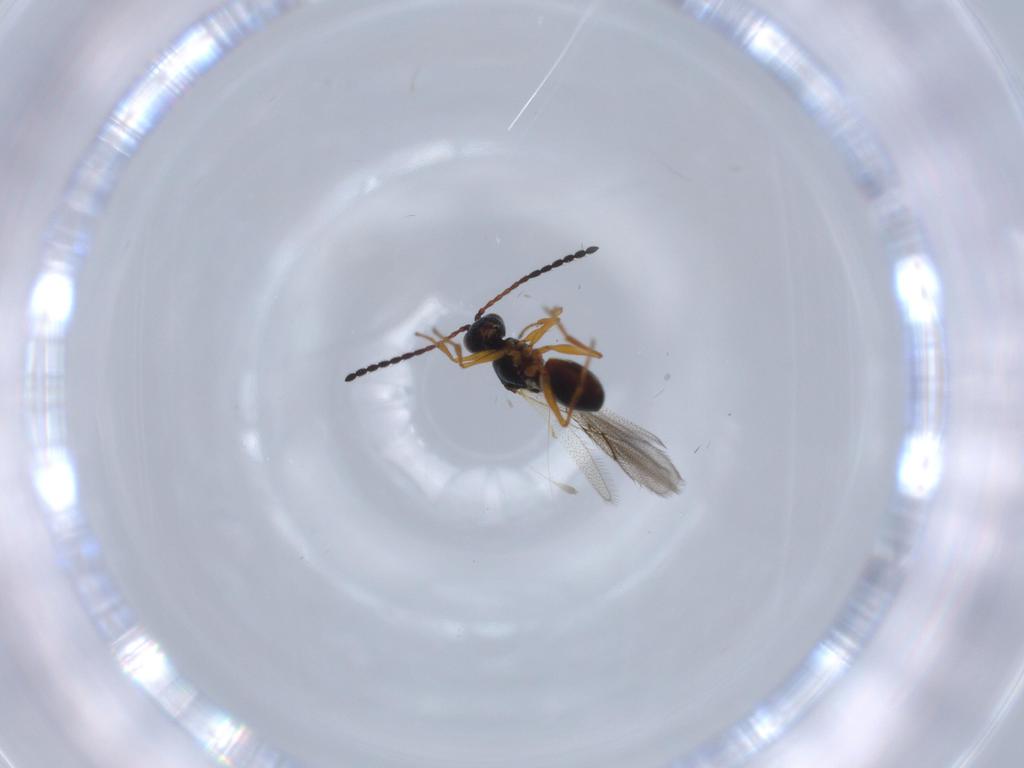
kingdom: Animalia
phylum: Arthropoda
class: Insecta
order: Hymenoptera
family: Figitidae
